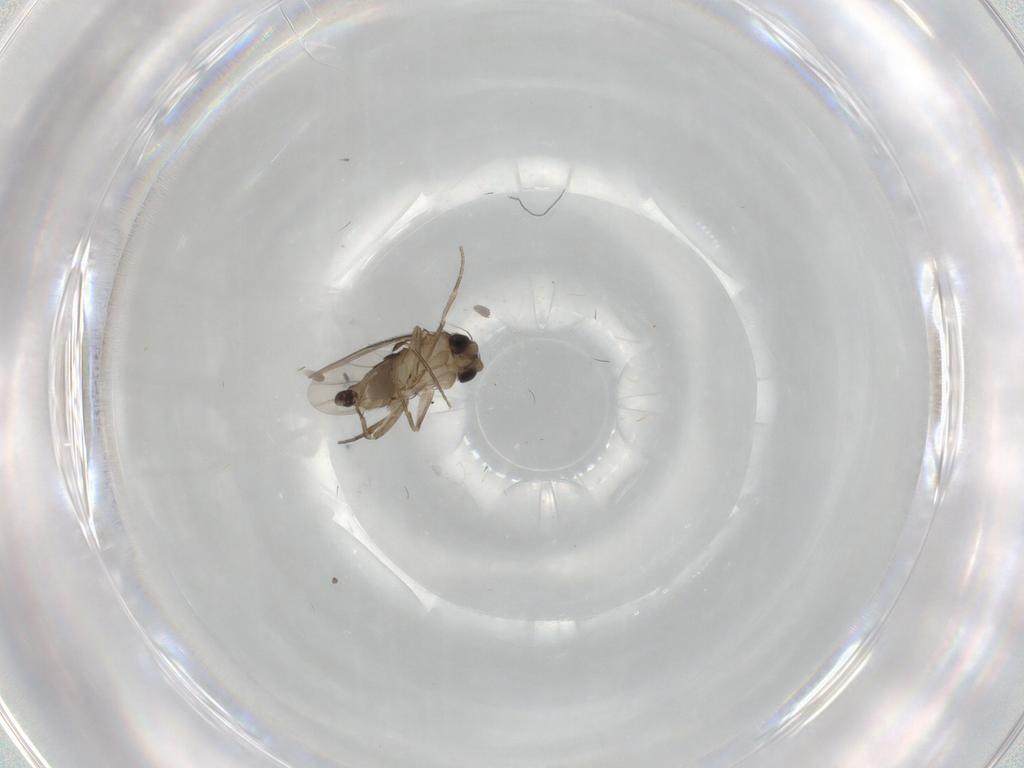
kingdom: Animalia
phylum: Arthropoda
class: Insecta
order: Diptera
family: Phoridae
